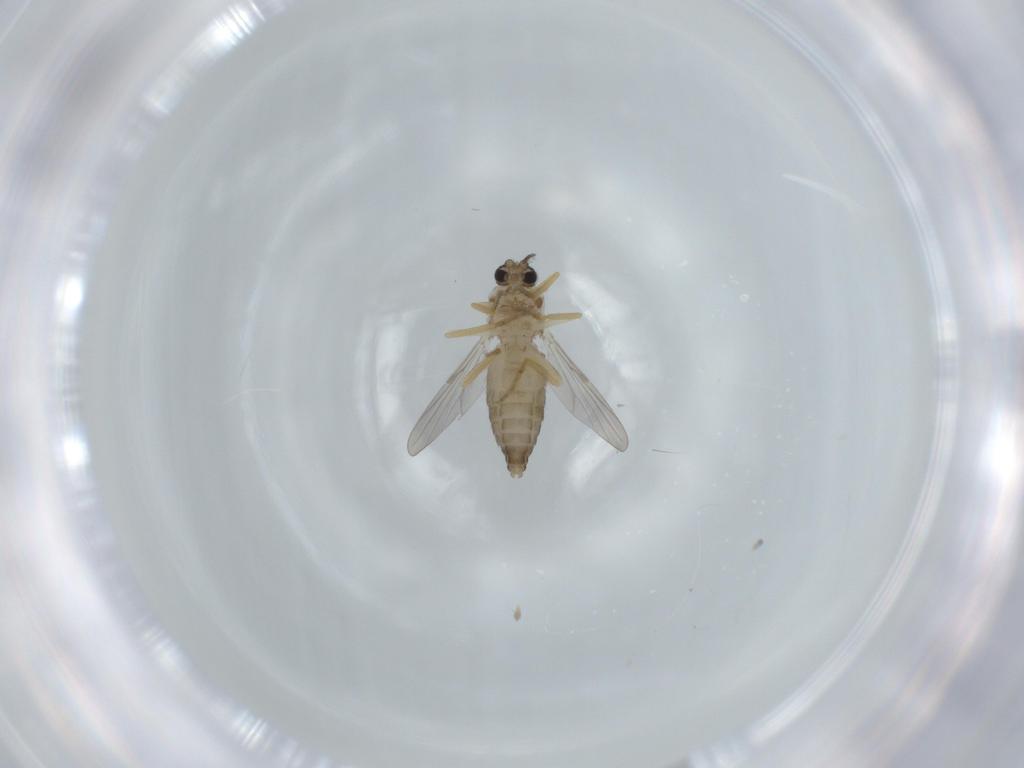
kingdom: Animalia
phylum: Arthropoda
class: Insecta
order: Diptera
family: Ceratopogonidae
